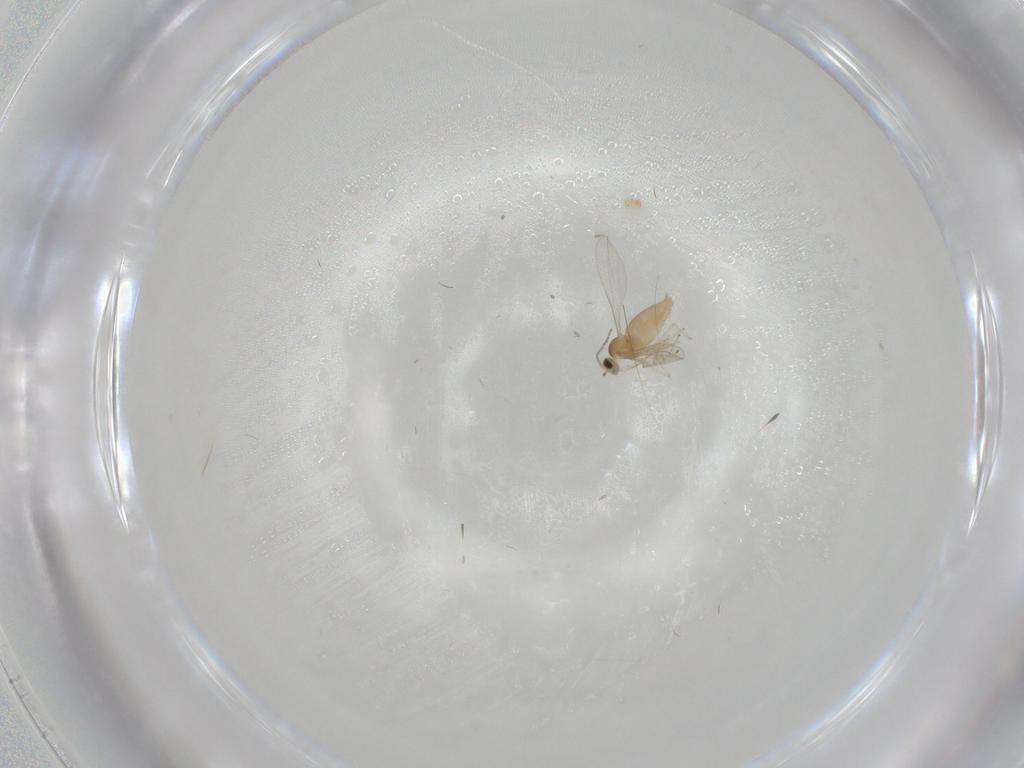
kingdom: Animalia
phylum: Arthropoda
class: Insecta
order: Diptera
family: Cecidomyiidae
